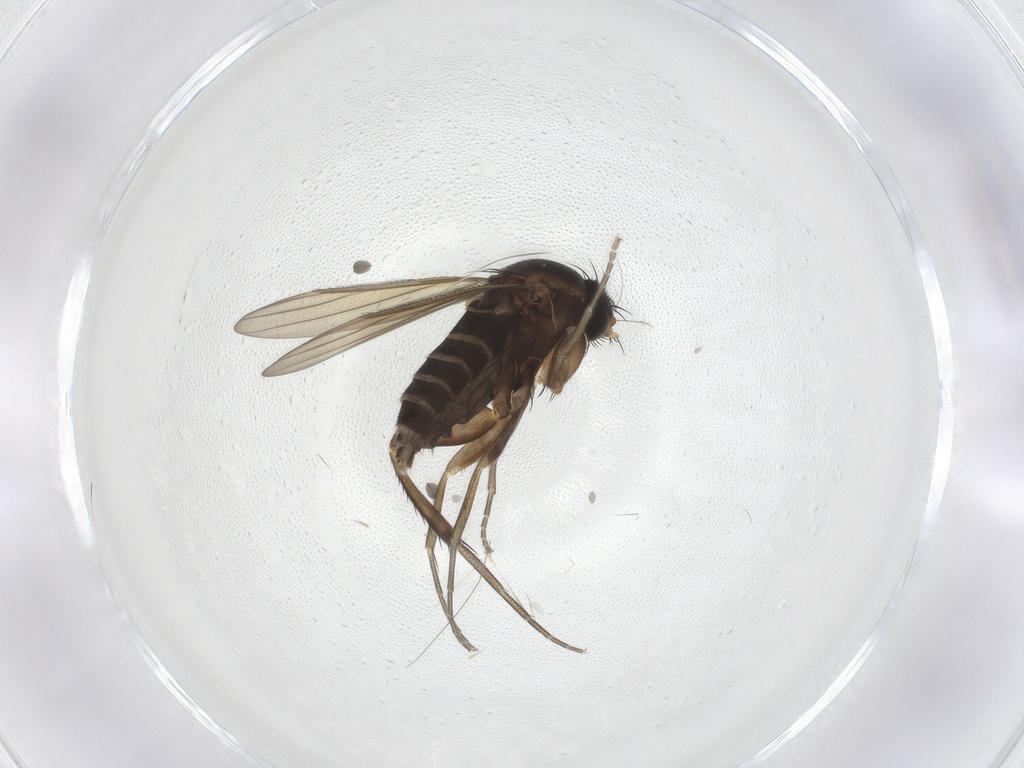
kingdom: Animalia
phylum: Arthropoda
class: Insecta
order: Diptera
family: Phoridae
